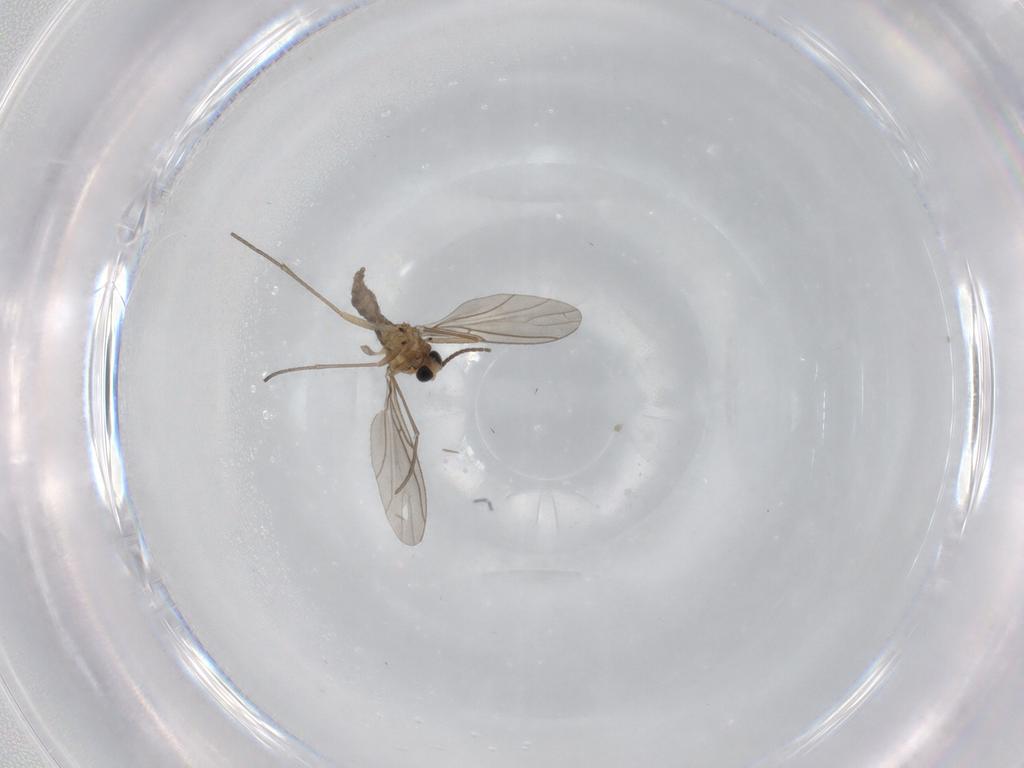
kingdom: Animalia
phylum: Arthropoda
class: Insecta
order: Diptera
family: Sciaridae
